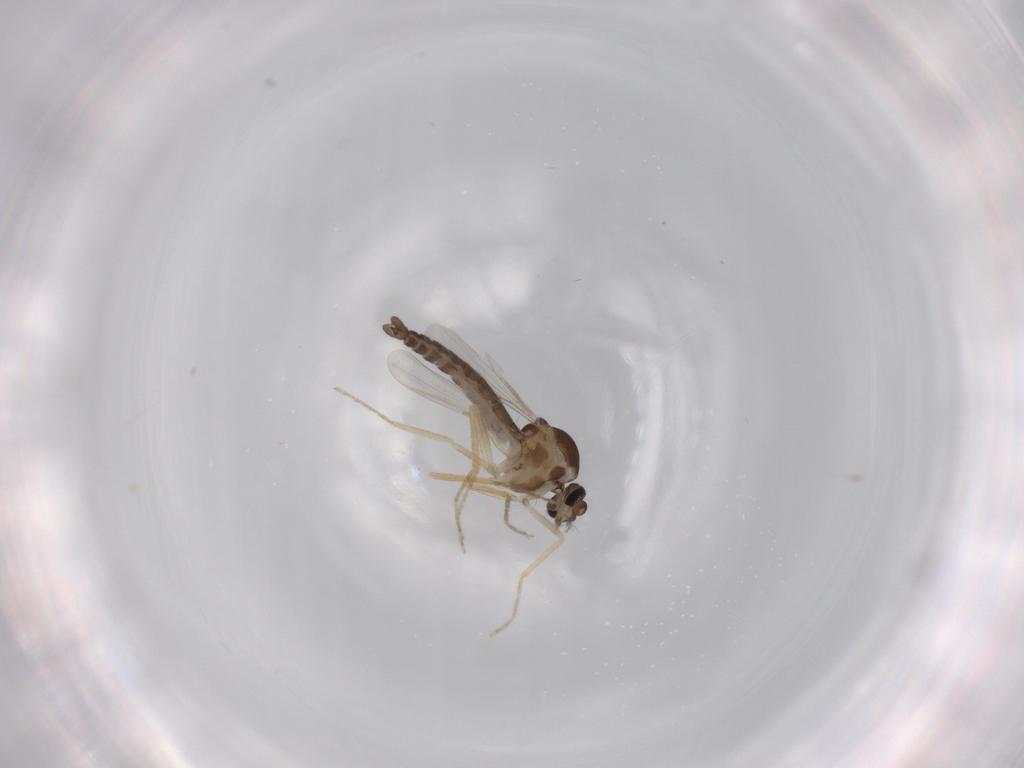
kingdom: Animalia
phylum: Arthropoda
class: Insecta
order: Diptera
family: Ceratopogonidae
